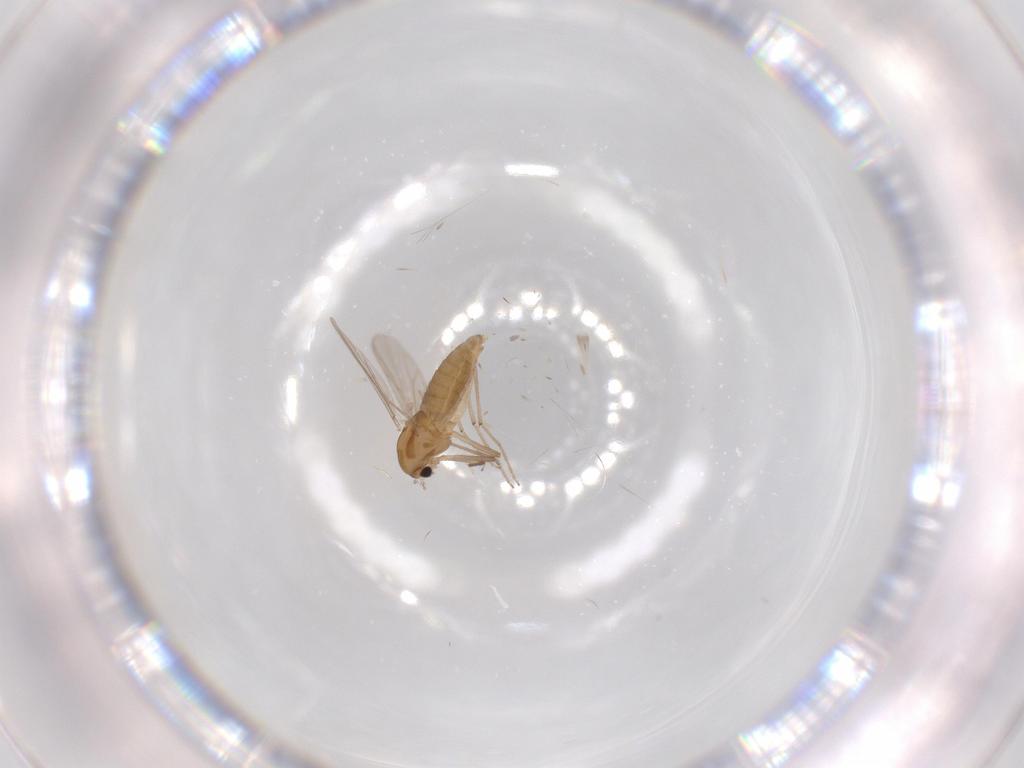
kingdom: Animalia
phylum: Arthropoda
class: Insecta
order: Diptera
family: Chironomidae
